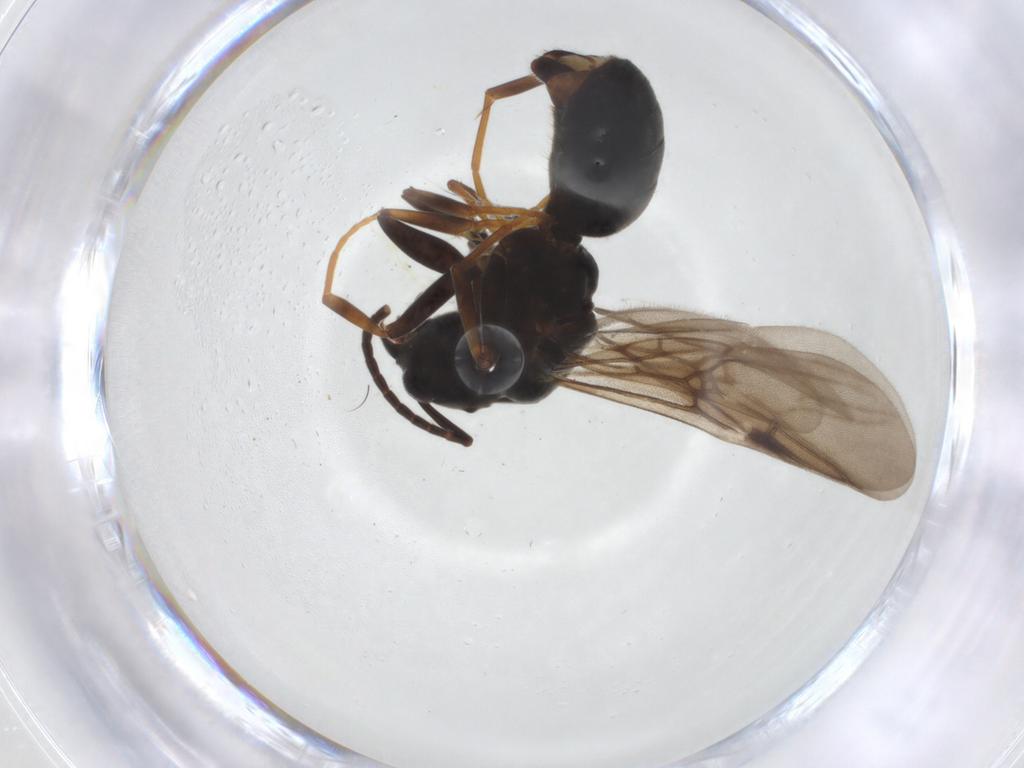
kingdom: Animalia
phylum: Arthropoda
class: Insecta
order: Hymenoptera
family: Formicidae
